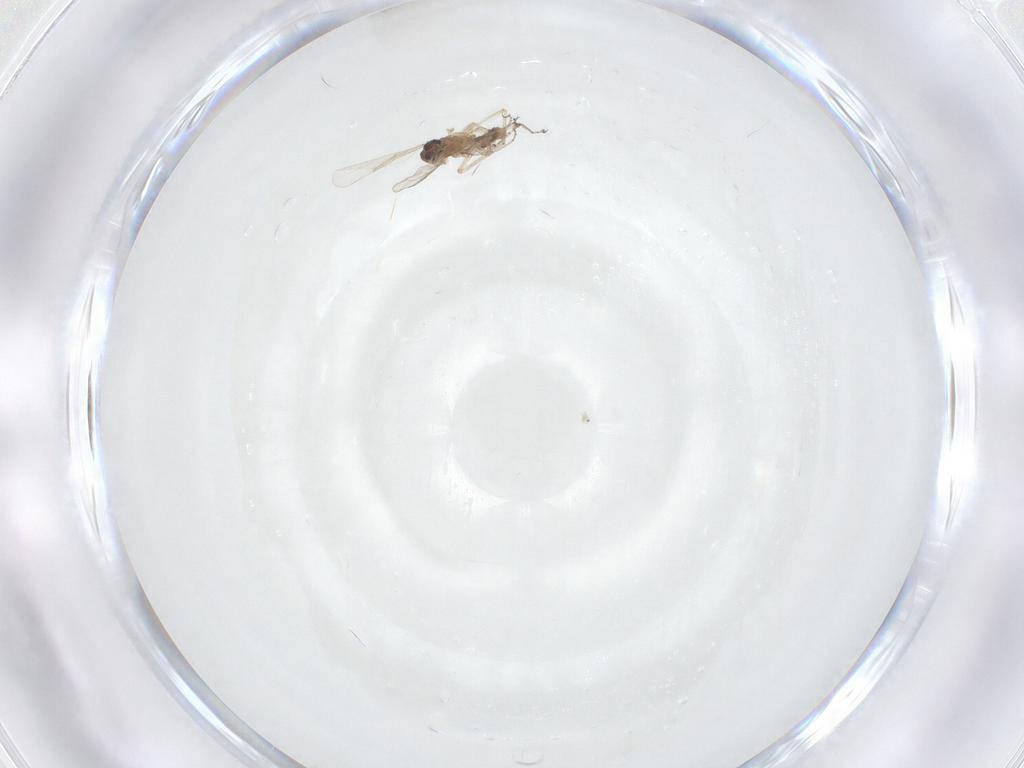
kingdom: Animalia
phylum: Arthropoda
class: Insecta
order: Diptera
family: Ceratopogonidae
